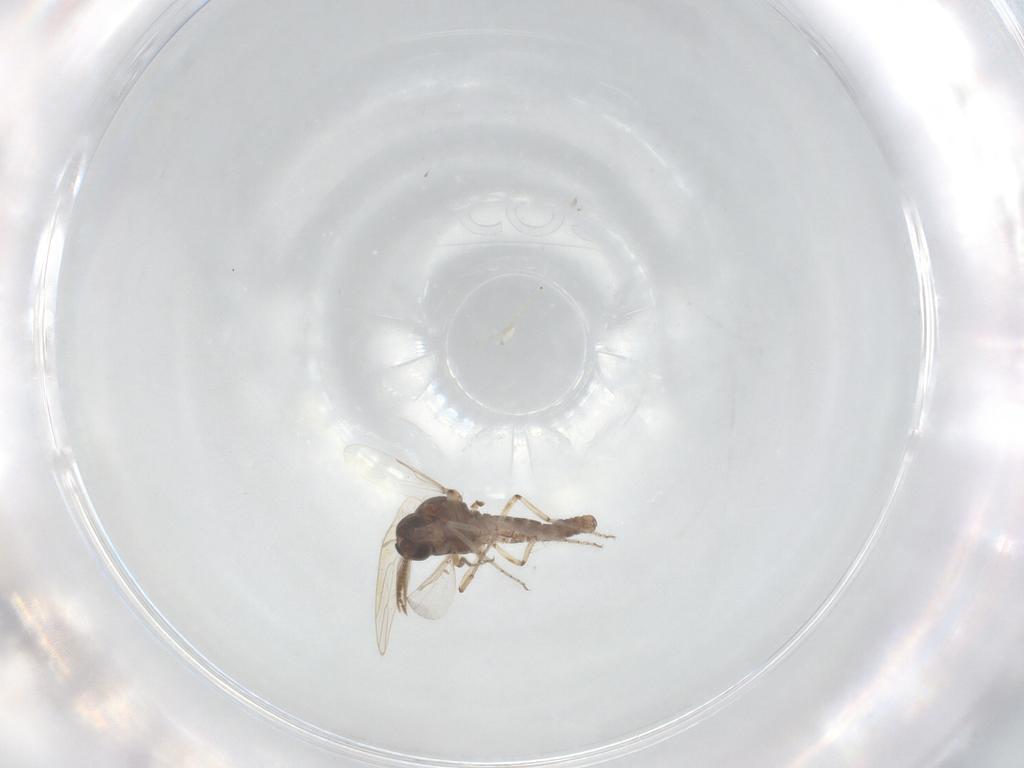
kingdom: Animalia
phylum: Arthropoda
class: Insecta
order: Diptera
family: Ceratopogonidae
